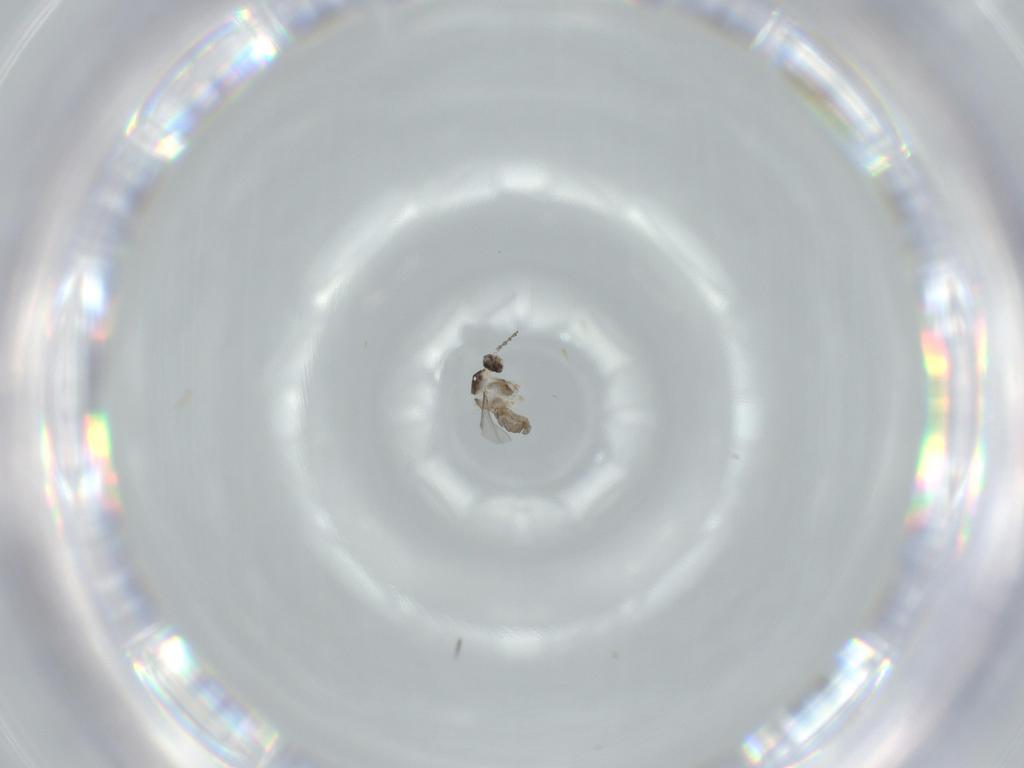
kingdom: Animalia
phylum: Arthropoda
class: Insecta
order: Diptera
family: Cecidomyiidae
